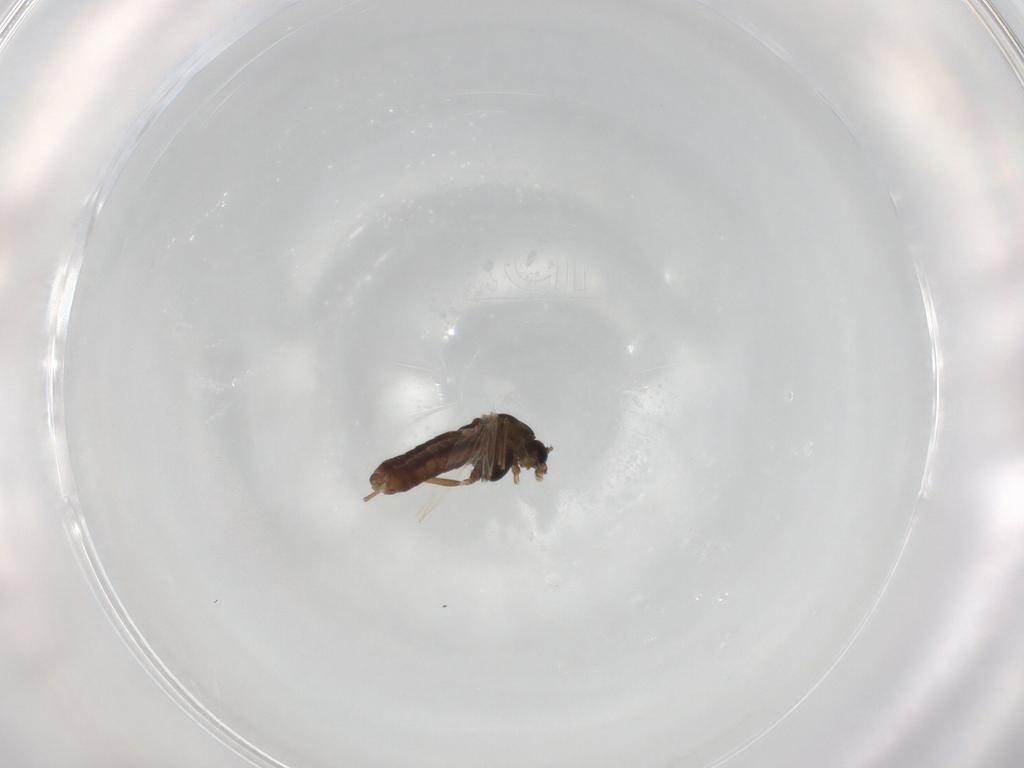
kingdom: Animalia
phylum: Arthropoda
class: Insecta
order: Diptera
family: Chironomidae
